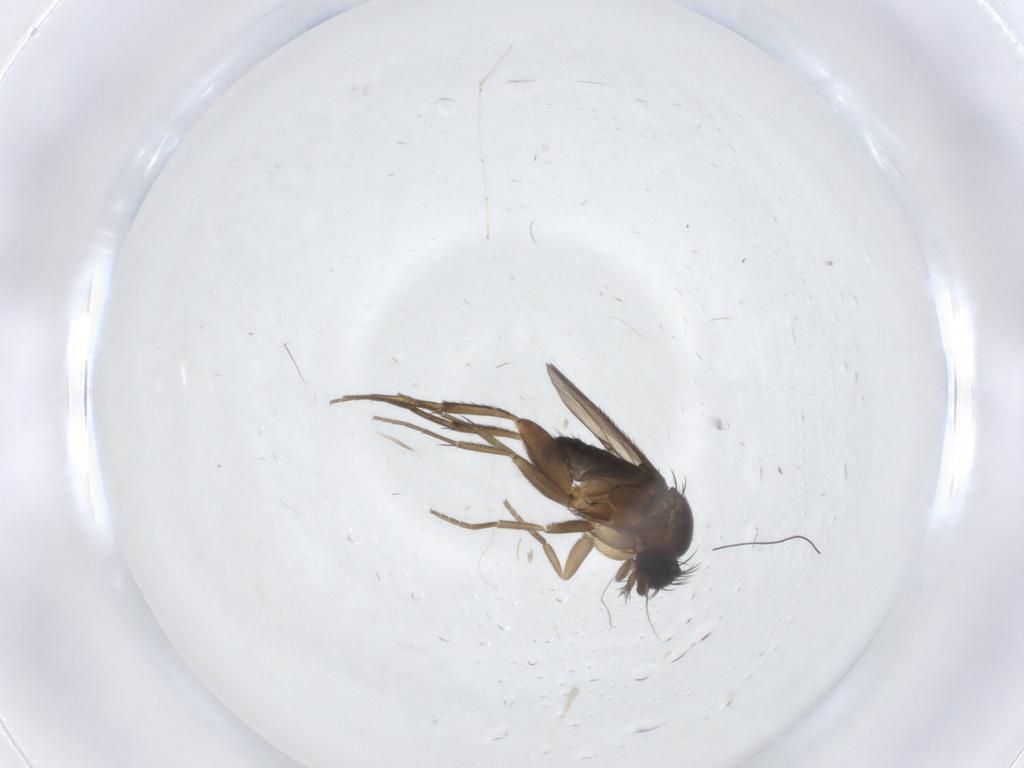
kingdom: Animalia
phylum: Arthropoda
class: Insecta
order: Diptera
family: Phoridae
